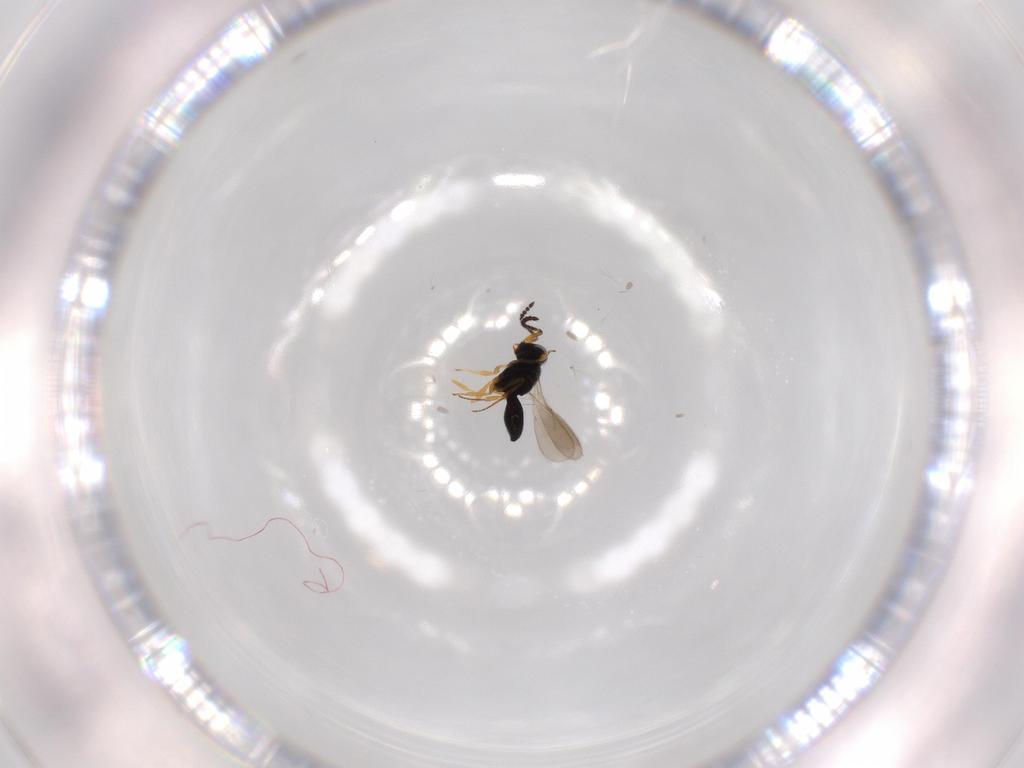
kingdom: Animalia
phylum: Arthropoda
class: Insecta
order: Hymenoptera
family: Scelionidae
